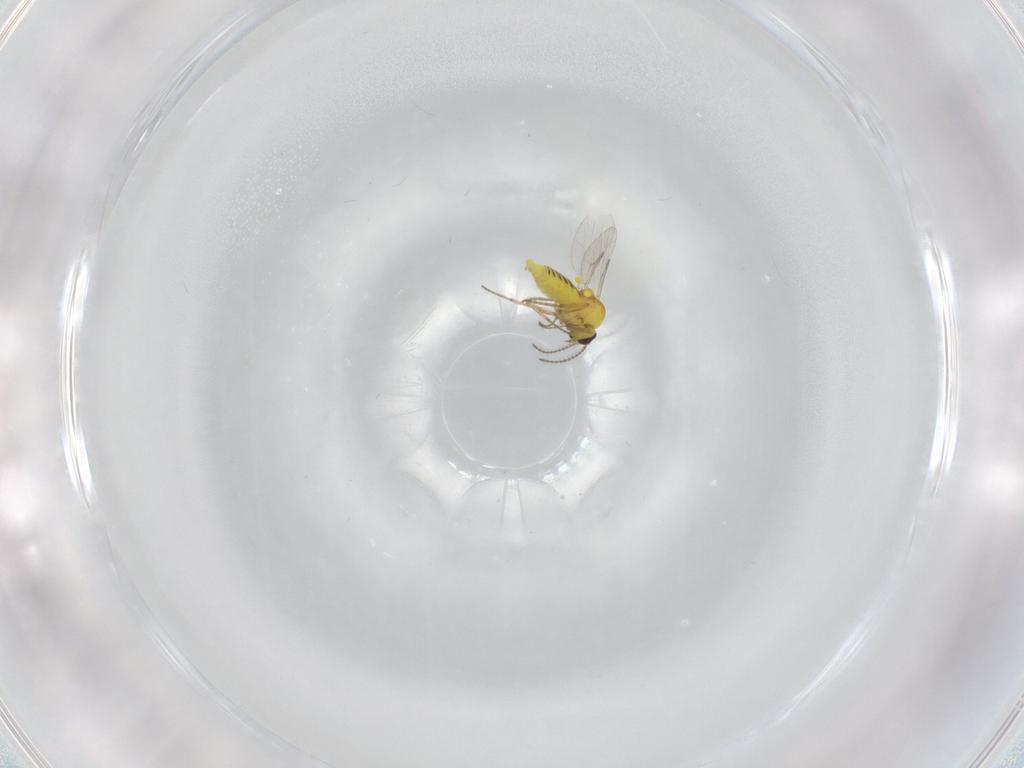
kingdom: Animalia
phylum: Arthropoda
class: Insecta
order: Diptera
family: Ceratopogonidae
